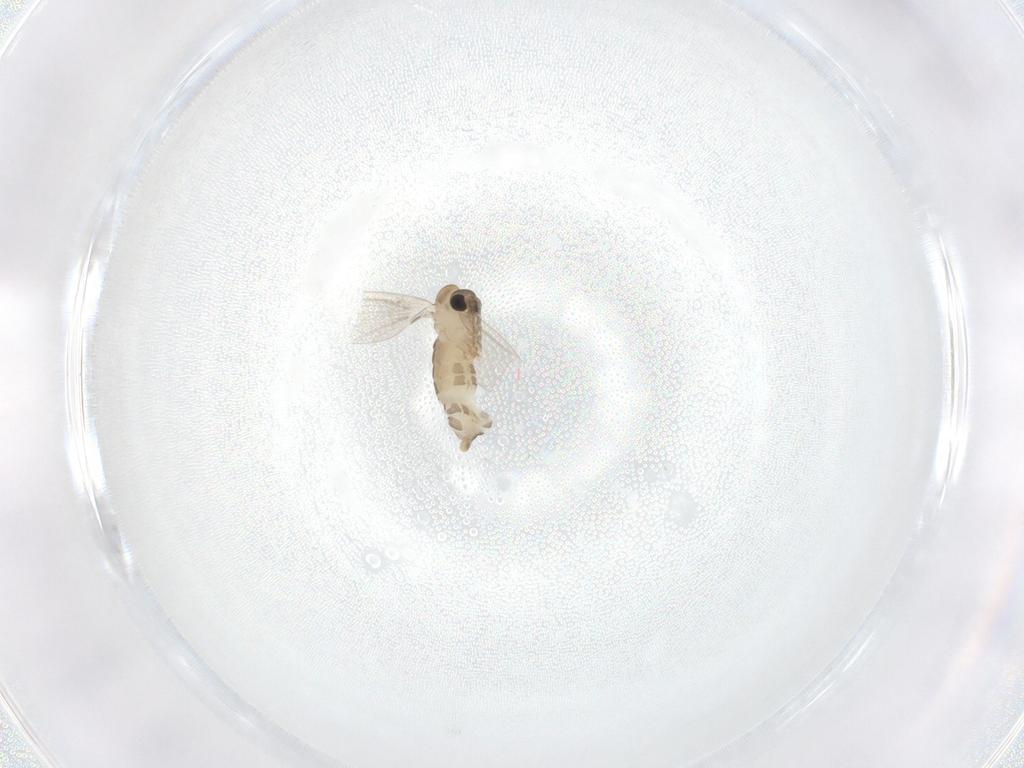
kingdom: Animalia
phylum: Arthropoda
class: Insecta
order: Diptera
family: Psychodidae
